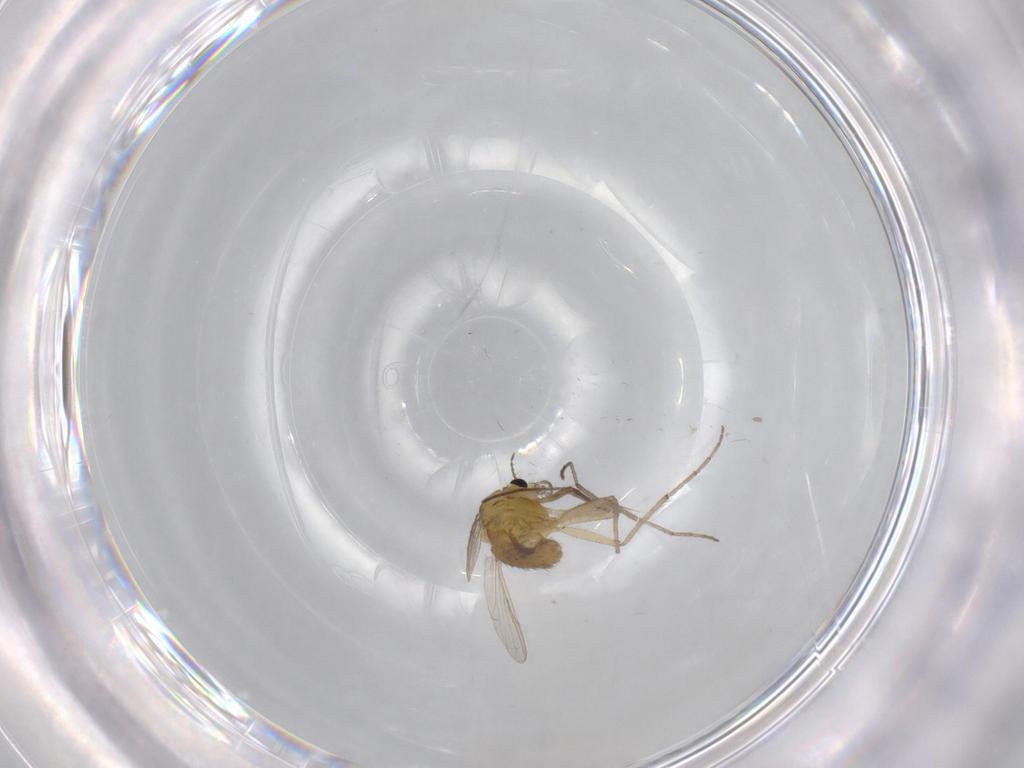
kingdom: Animalia
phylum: Arthropoda
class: Insecta
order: Diptera
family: Chironomidae
